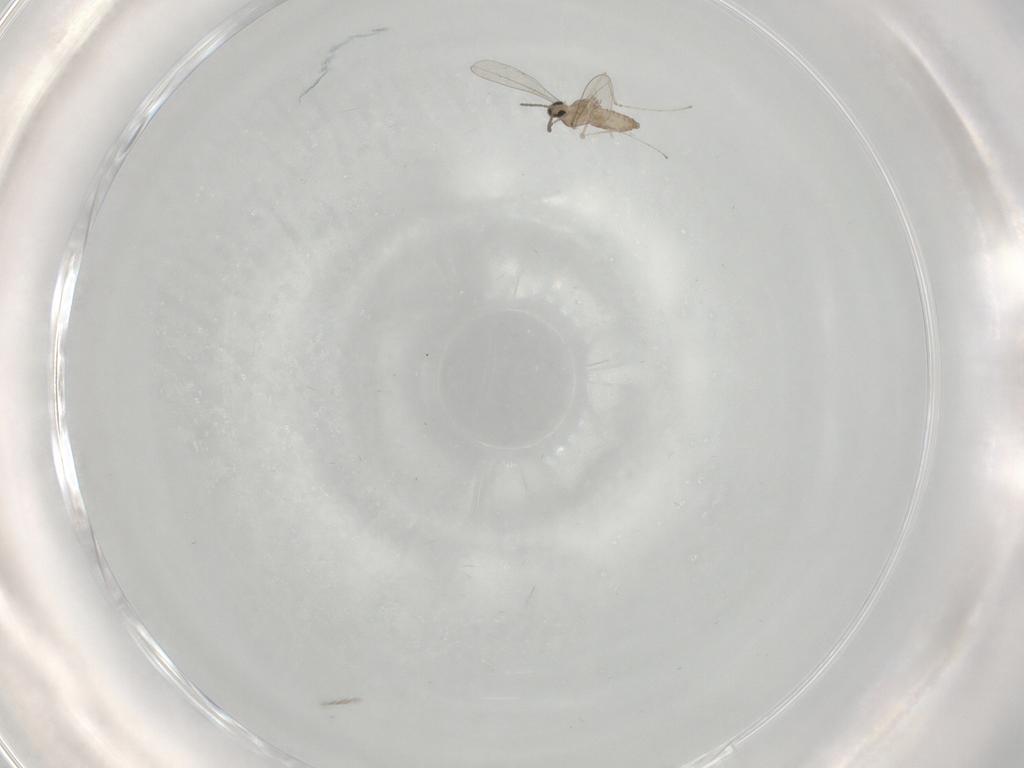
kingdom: Animalia
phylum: Arthropoda
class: Insecta
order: Diptera
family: Cecidomyiidae
